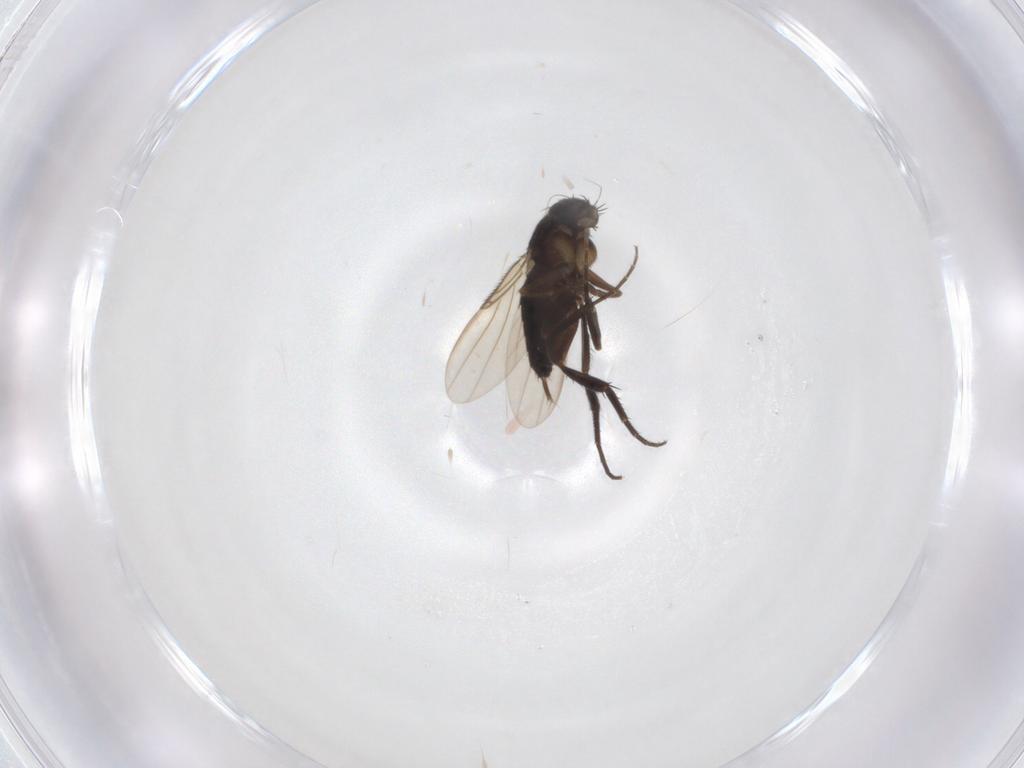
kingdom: Animalia
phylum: Arthropoda
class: Insecta
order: Diptera
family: Phoridae
